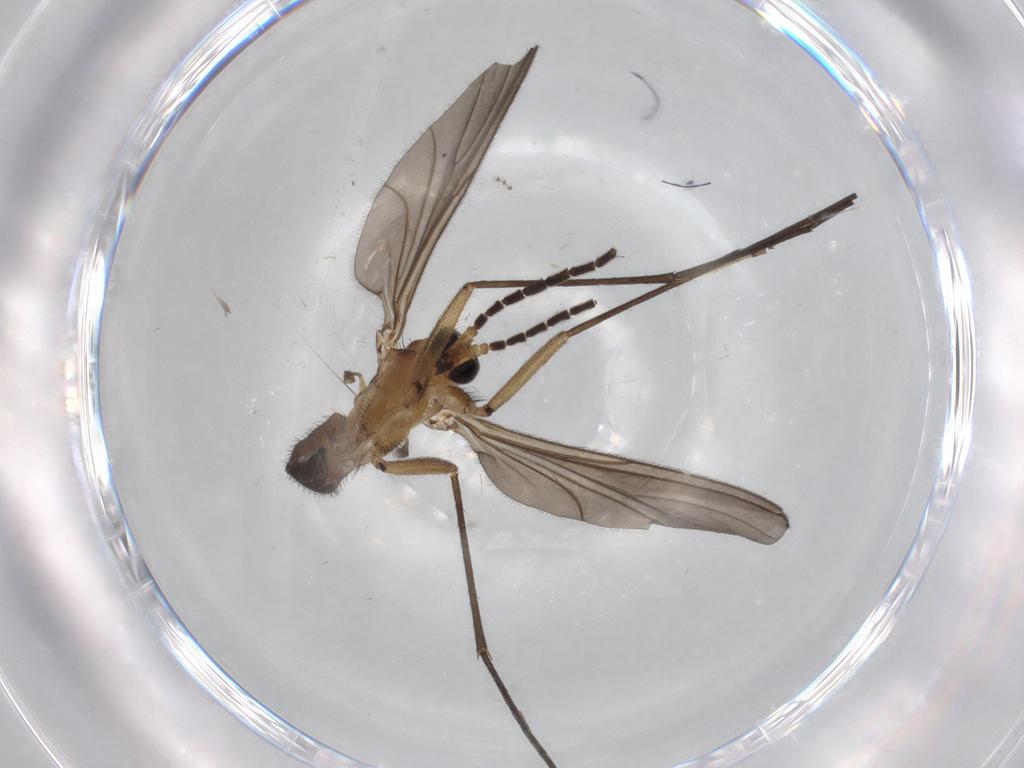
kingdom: Animalia
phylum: Arthropoda
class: Insecta
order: Diptera
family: Sciaridae
